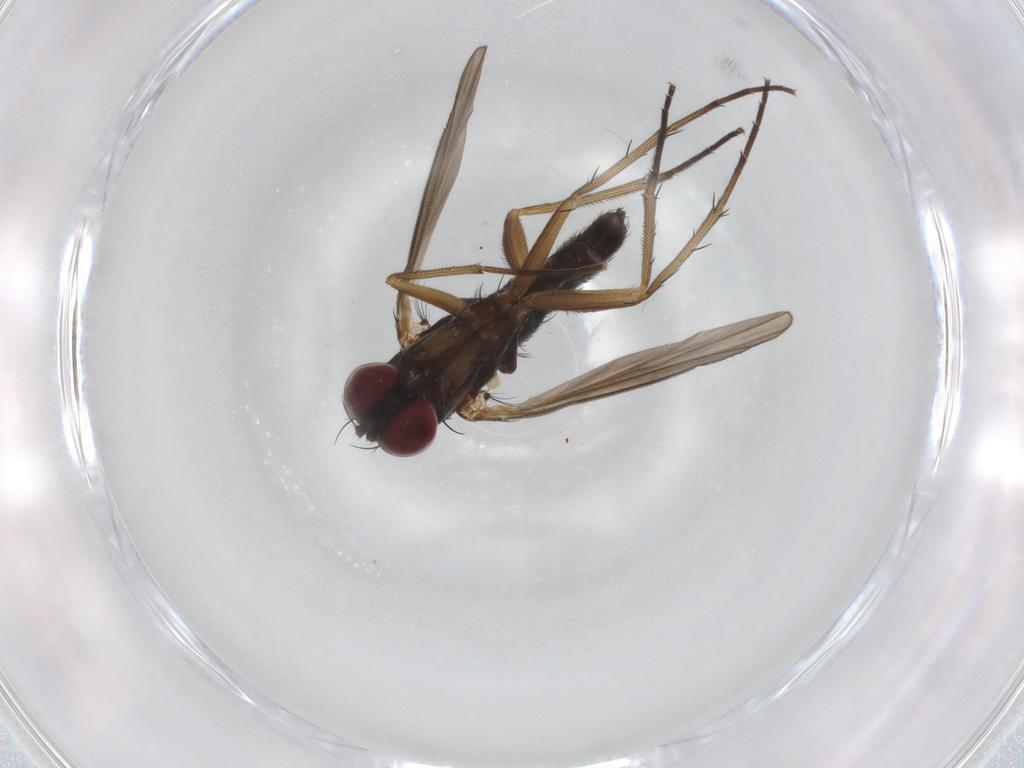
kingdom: Animalia
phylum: Arthropoda
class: Insecta
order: Diptera
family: Dolichopodidae
